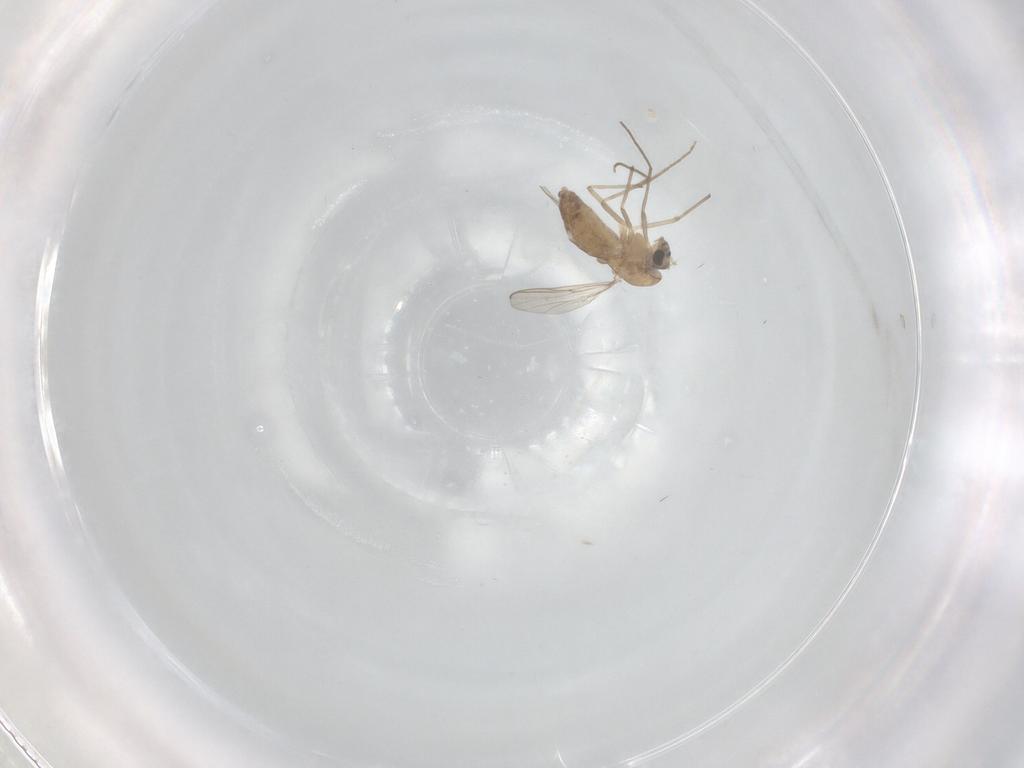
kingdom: Animalia
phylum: Arthropoda
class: Insecta
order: Diptera
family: Chironomidae
